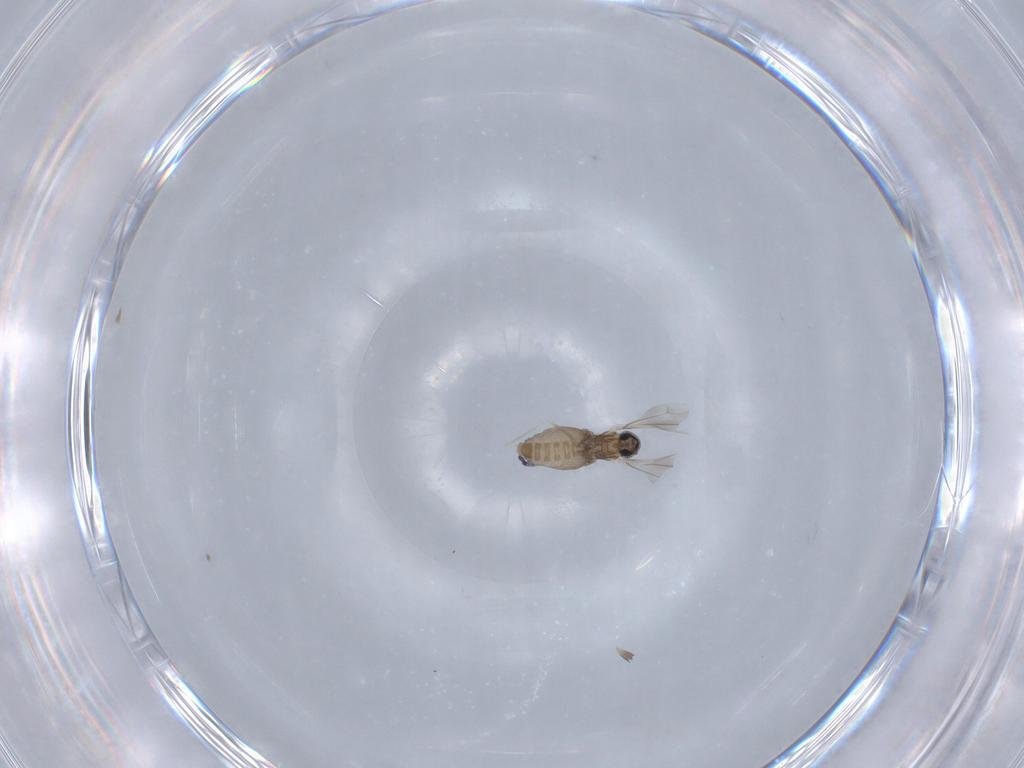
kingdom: Animalia
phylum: Arthropoda
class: Insecta
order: Diptera
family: Cecidomyiidae
